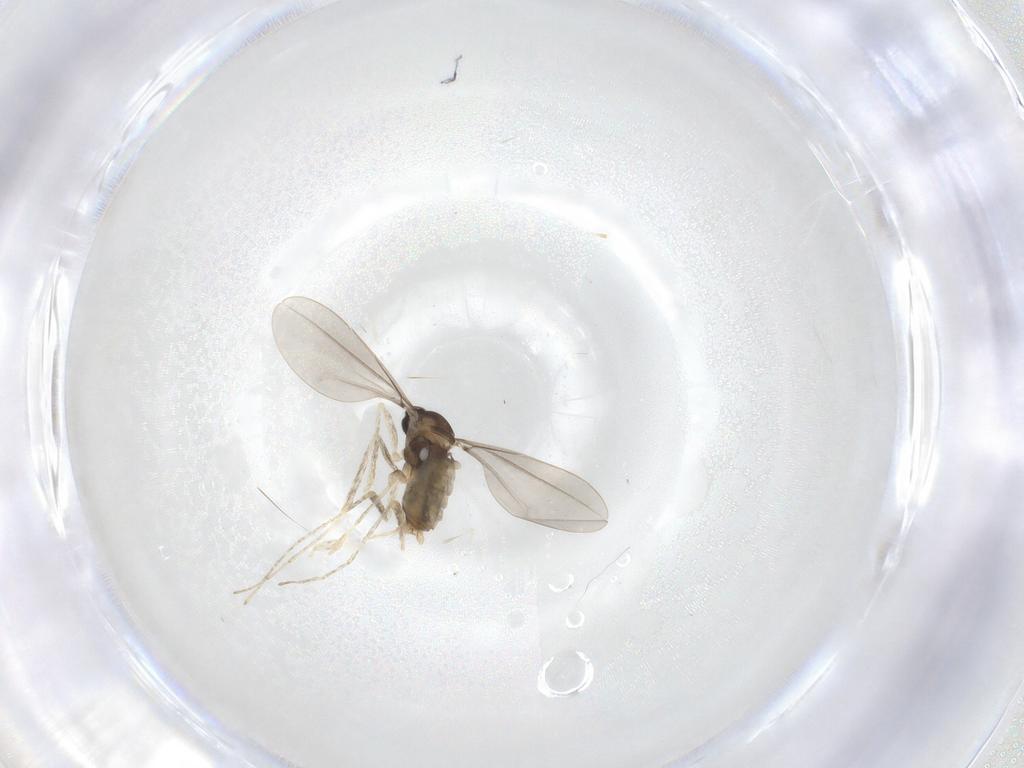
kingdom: Animalia
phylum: Arthropoda
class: Insecta
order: Diptera
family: Cecidomyiidae
